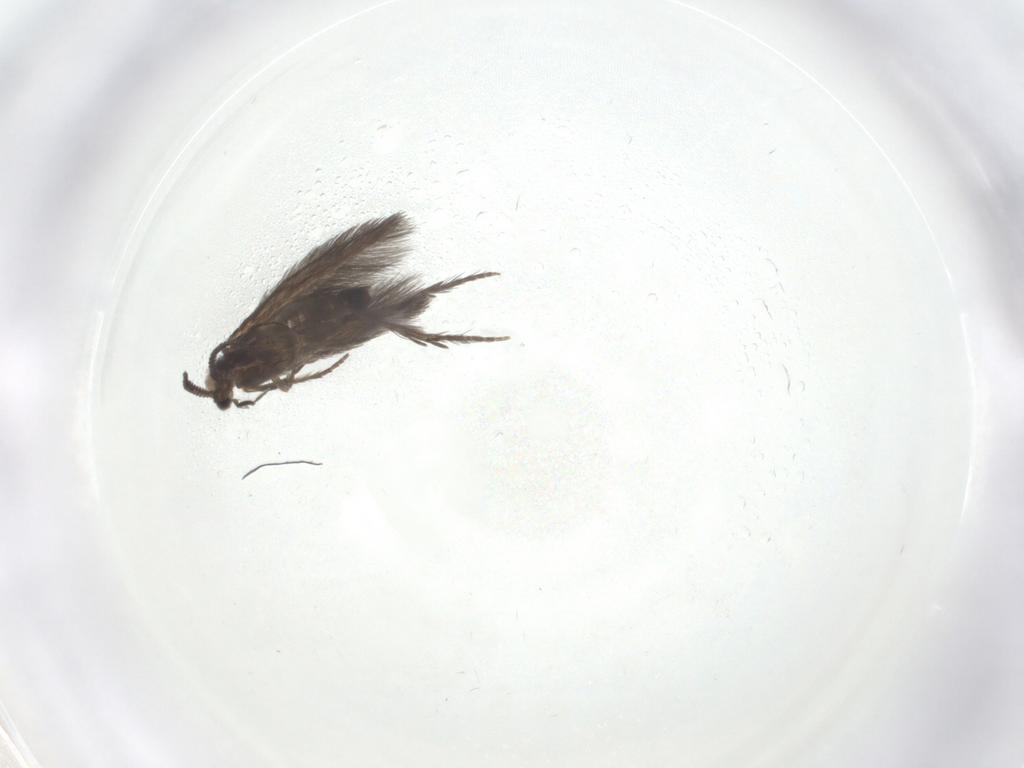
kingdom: Animalia
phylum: Arthropoda
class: Insecta
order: Trichoptera
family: Hydroptilidae
